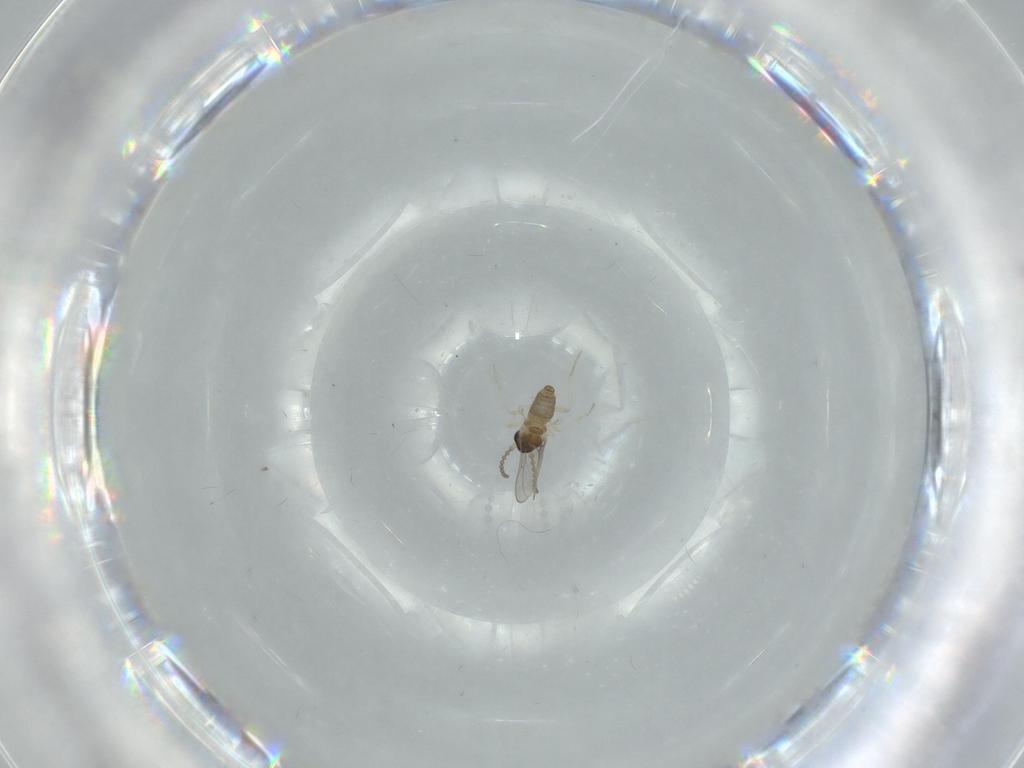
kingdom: Animalia
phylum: Arthropoda
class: Insecta
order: Diptera
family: Cecidomyiidae
